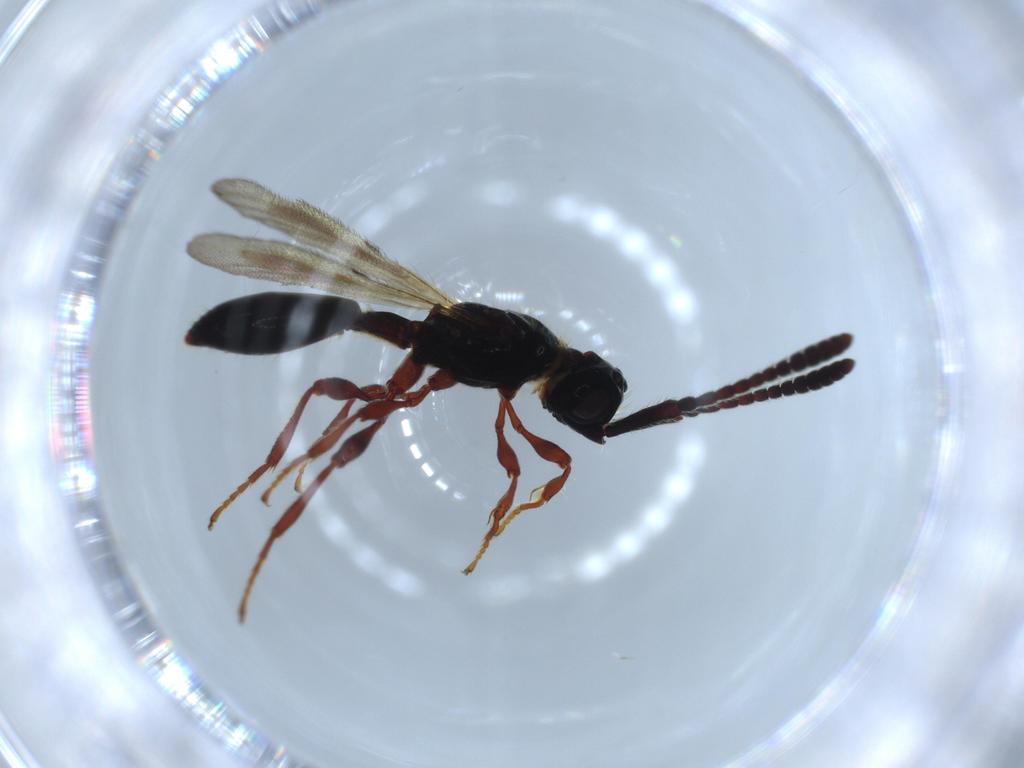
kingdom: Animalia
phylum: Arthropoda
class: Insecta
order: Hymenoptera
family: Diapriidae
